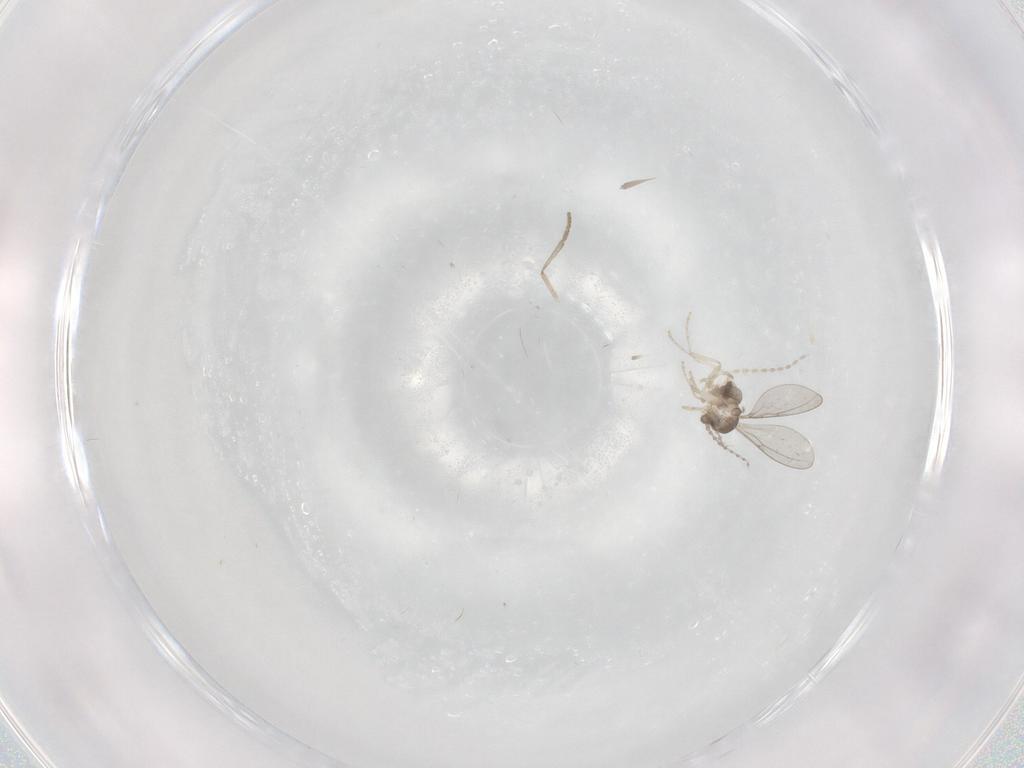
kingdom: Animalia
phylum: Arthropoda
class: Insecta
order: Diptera
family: Cecidomyiidae
